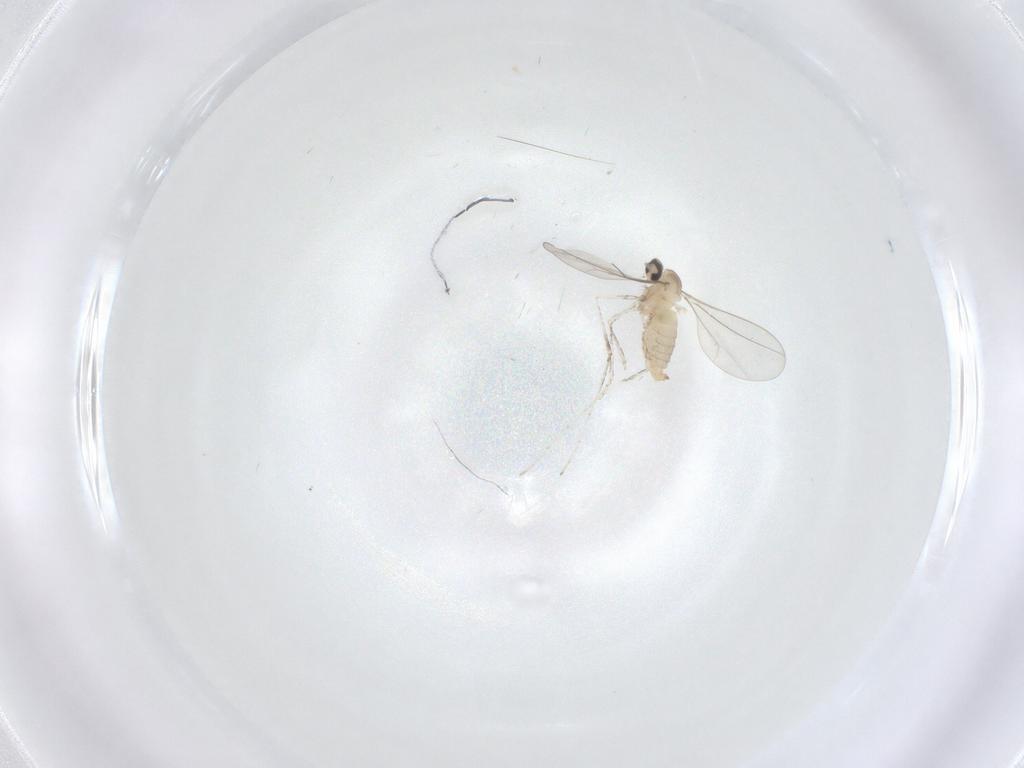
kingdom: Animalia
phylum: Arthropoda
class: Insecta
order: Diptera
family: Cecidomyiidae
